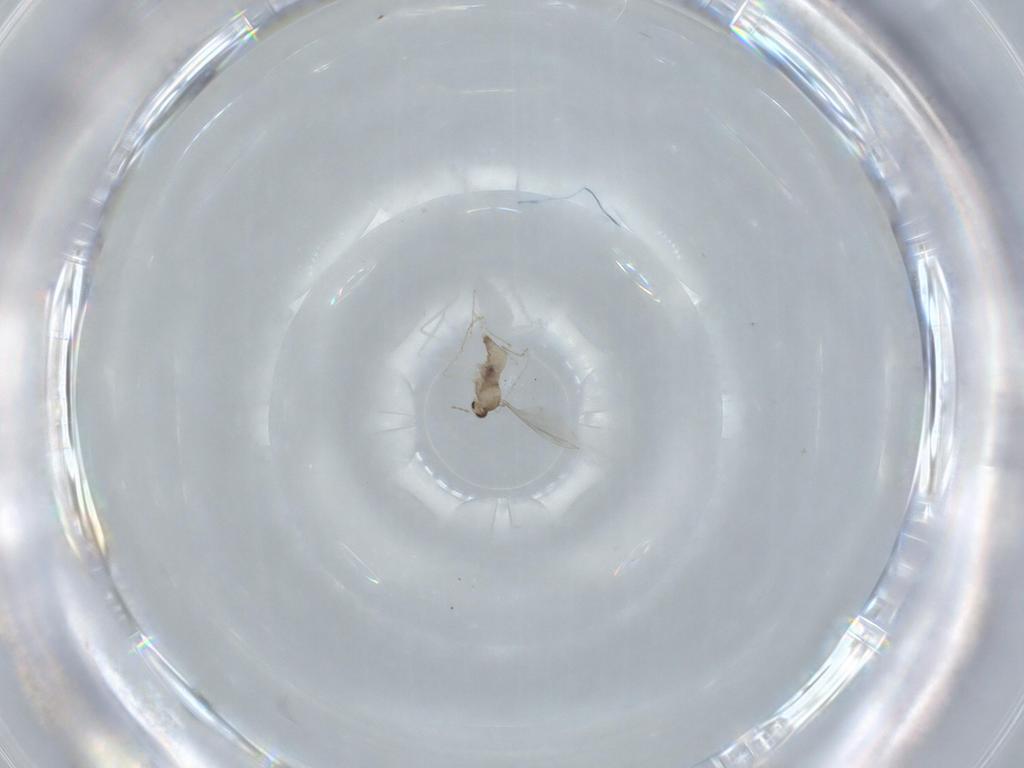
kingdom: Animalia
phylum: Arthropoda
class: Insecta
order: Diptera
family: Cecidomyiidae
